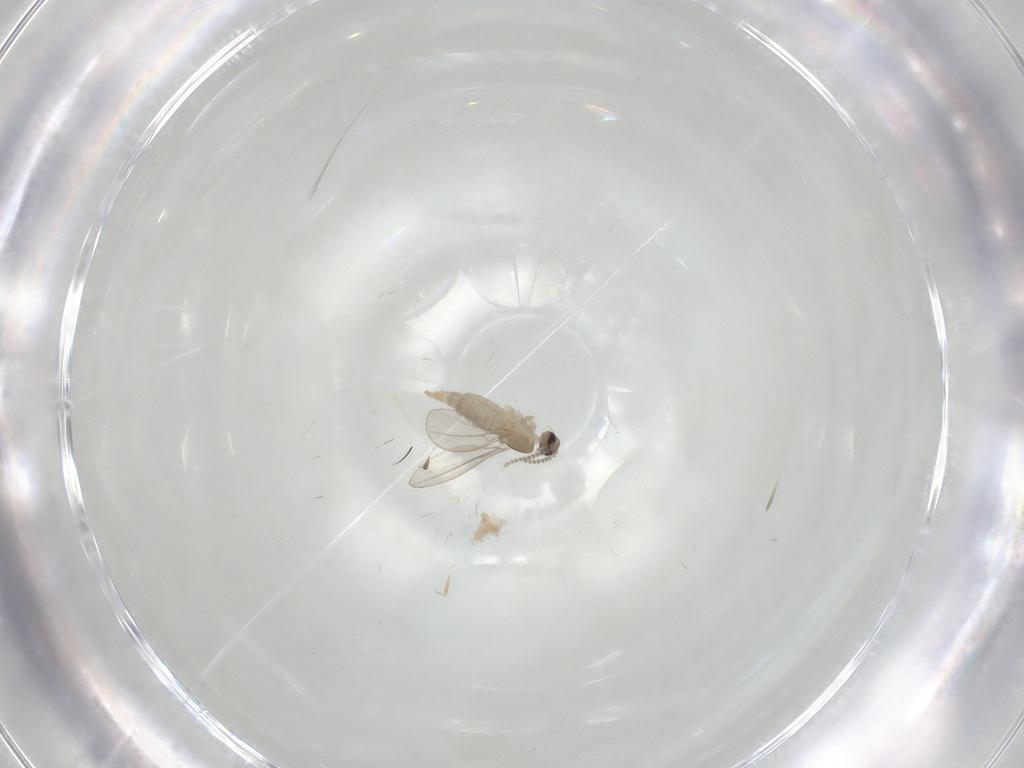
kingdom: Animalia
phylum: Arthropoda
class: Insecta
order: Diptera
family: Cecidomyiidae
